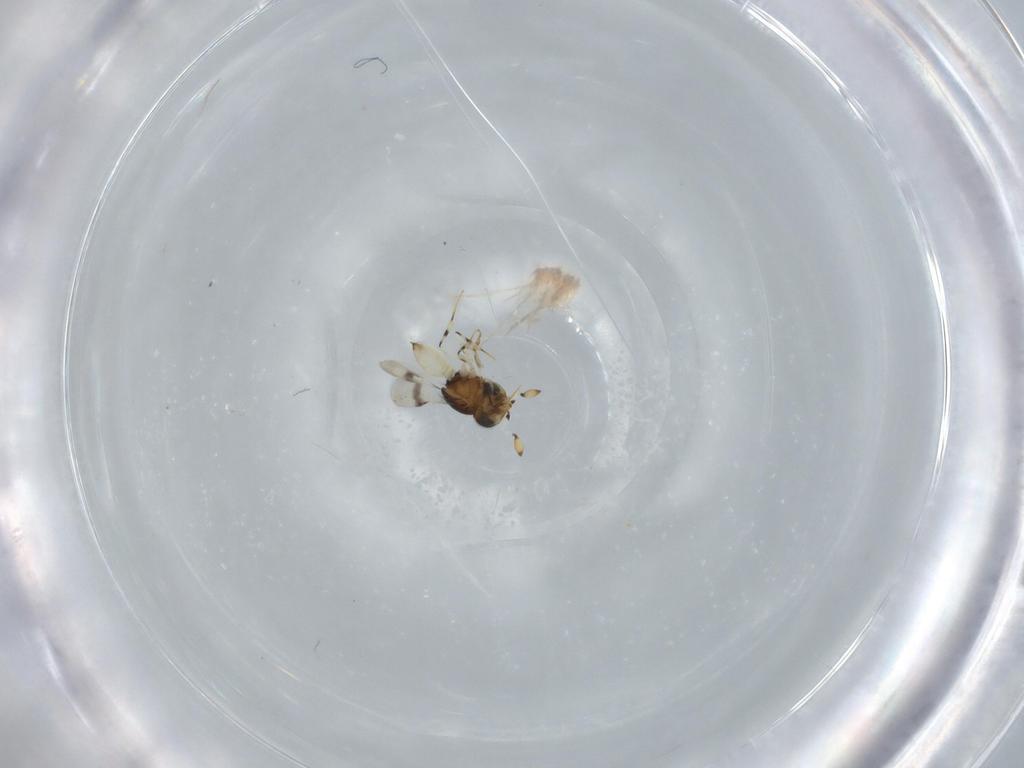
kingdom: Animalia
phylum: Arthropoda
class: Insecta
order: Hymenoptera
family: Scelionidae
